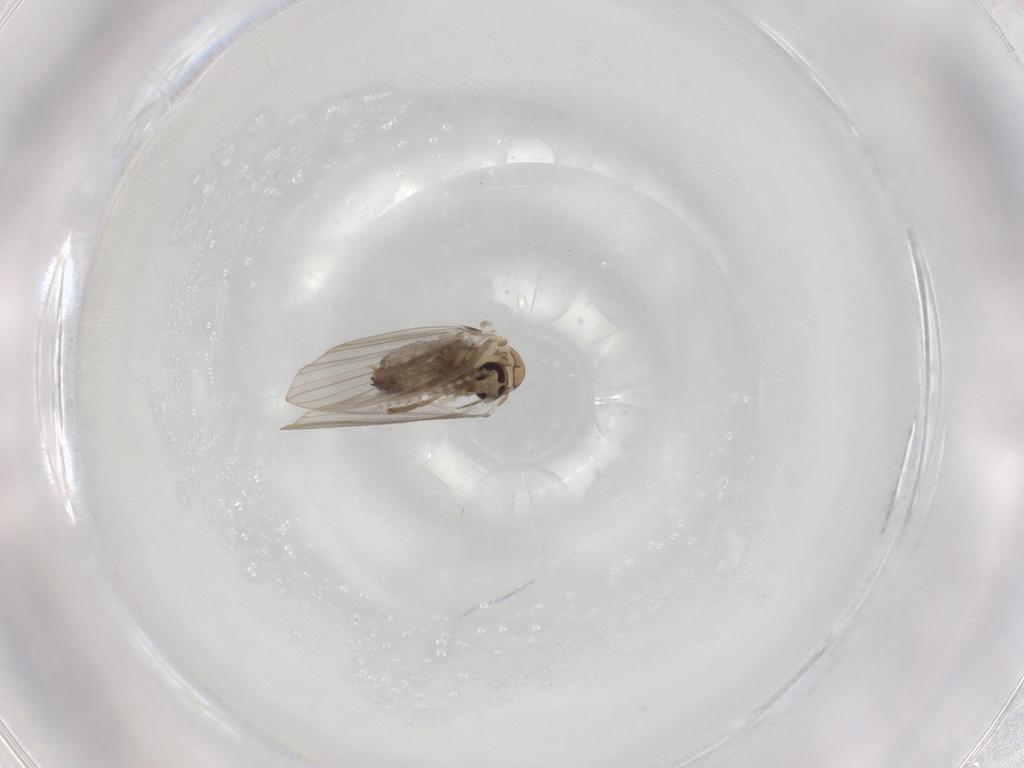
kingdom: Animalia
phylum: Arthropoda
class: Insecta
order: Diptera
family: Psychodidae
